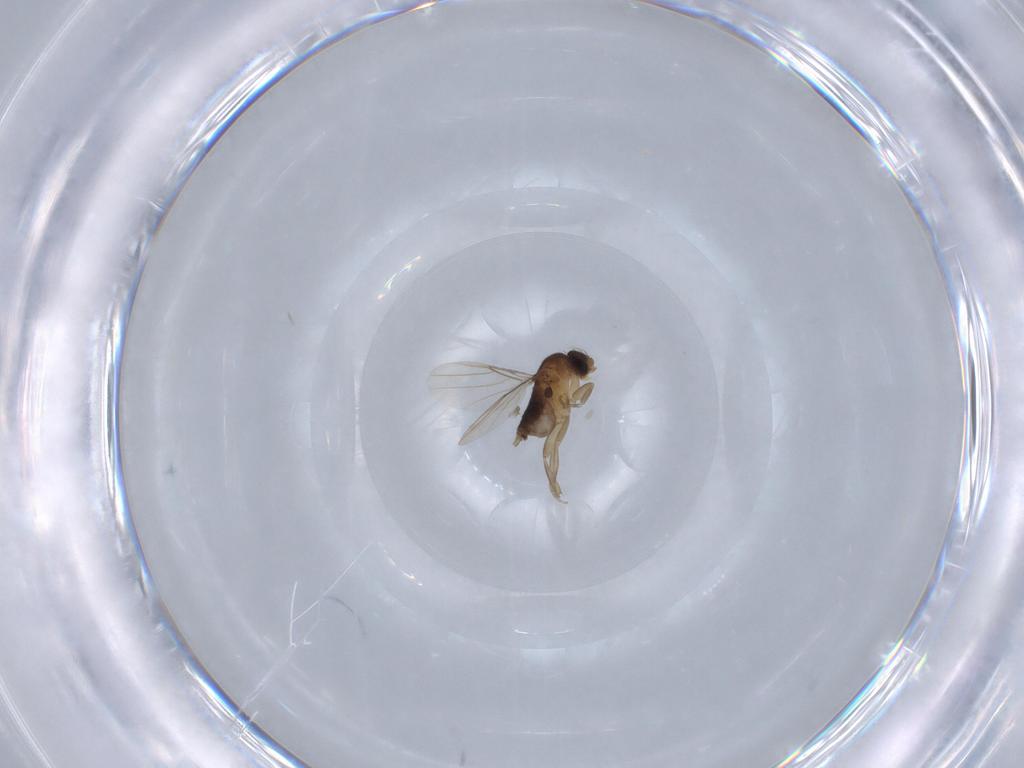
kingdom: Animalia
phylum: Arthropoda
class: Insecta
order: Diptera
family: Phoridae
